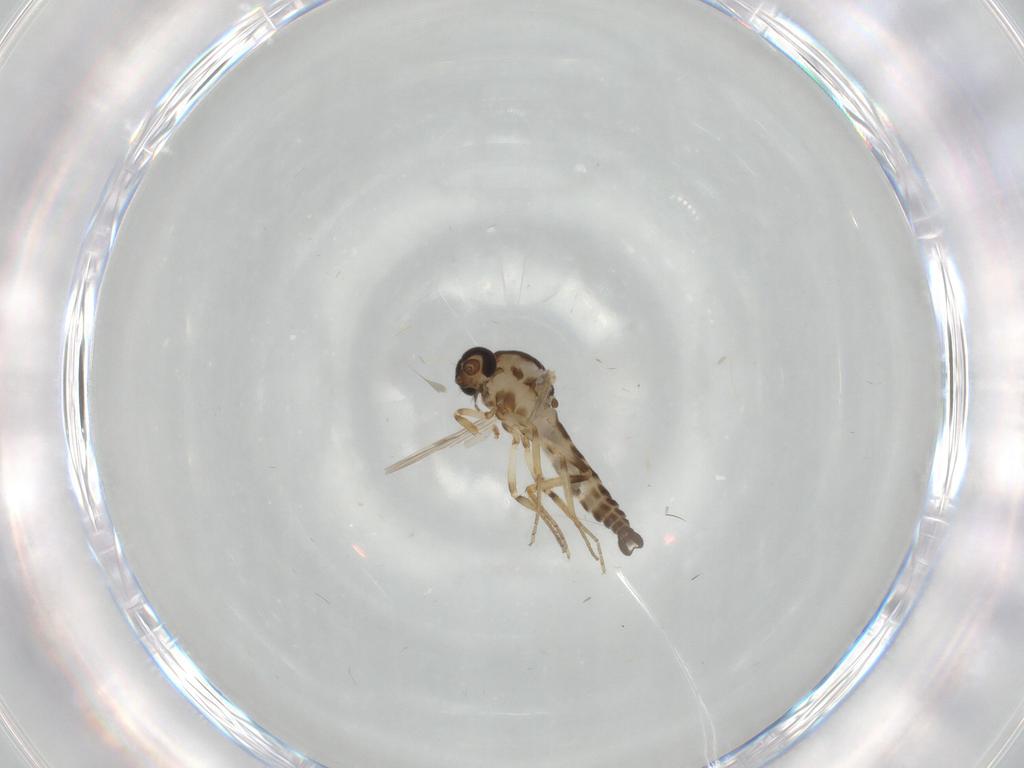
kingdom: Animalia
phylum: Arthropoda
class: Insecta
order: Diptera
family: Ceratopogonidae
